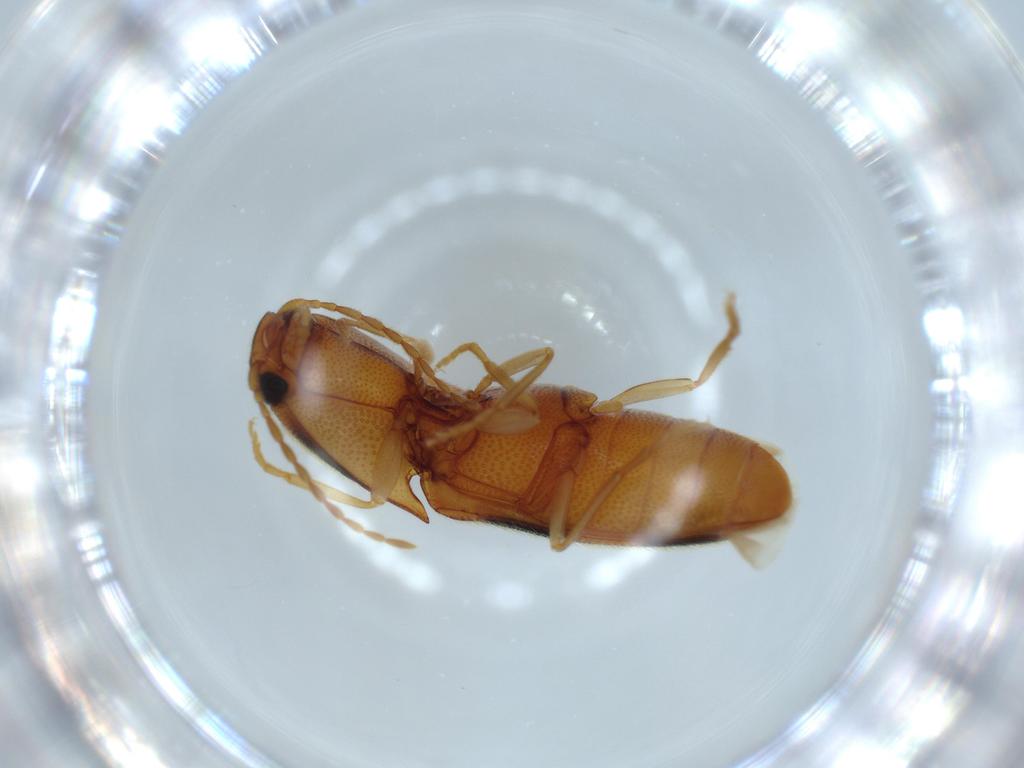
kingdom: Animalia
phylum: Arthropoda
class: Insecta
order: Coleoptera
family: Elateridae
